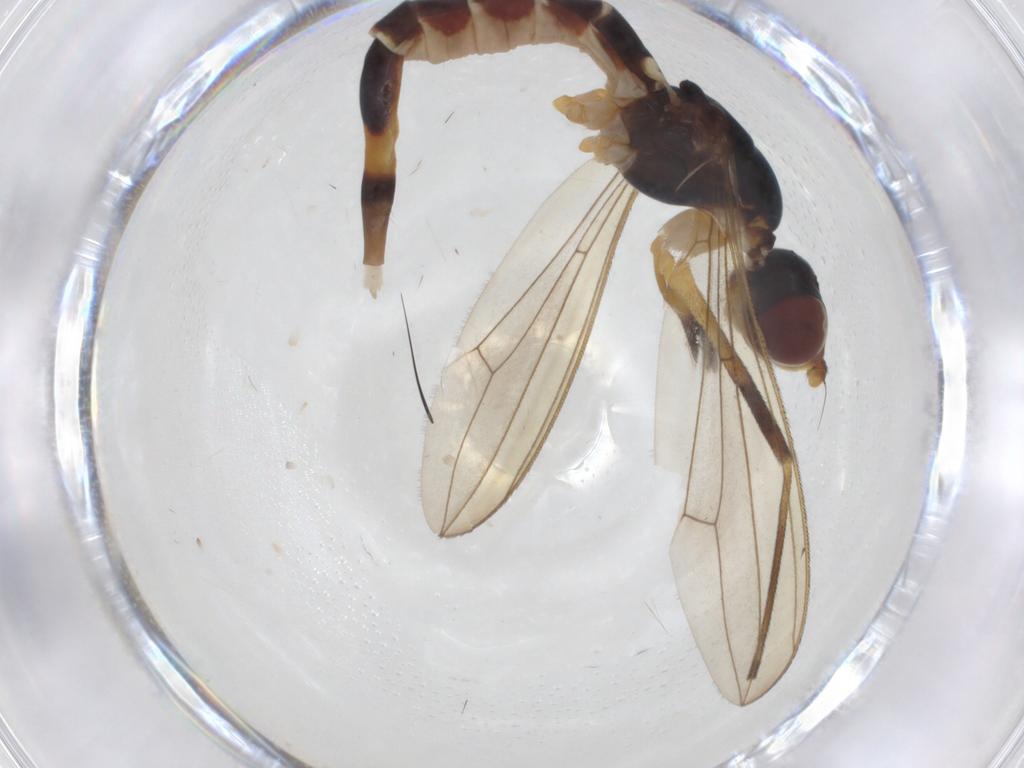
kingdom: Animalia
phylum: Arthropoda
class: Insecta
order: Diptera
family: Micropezidae
